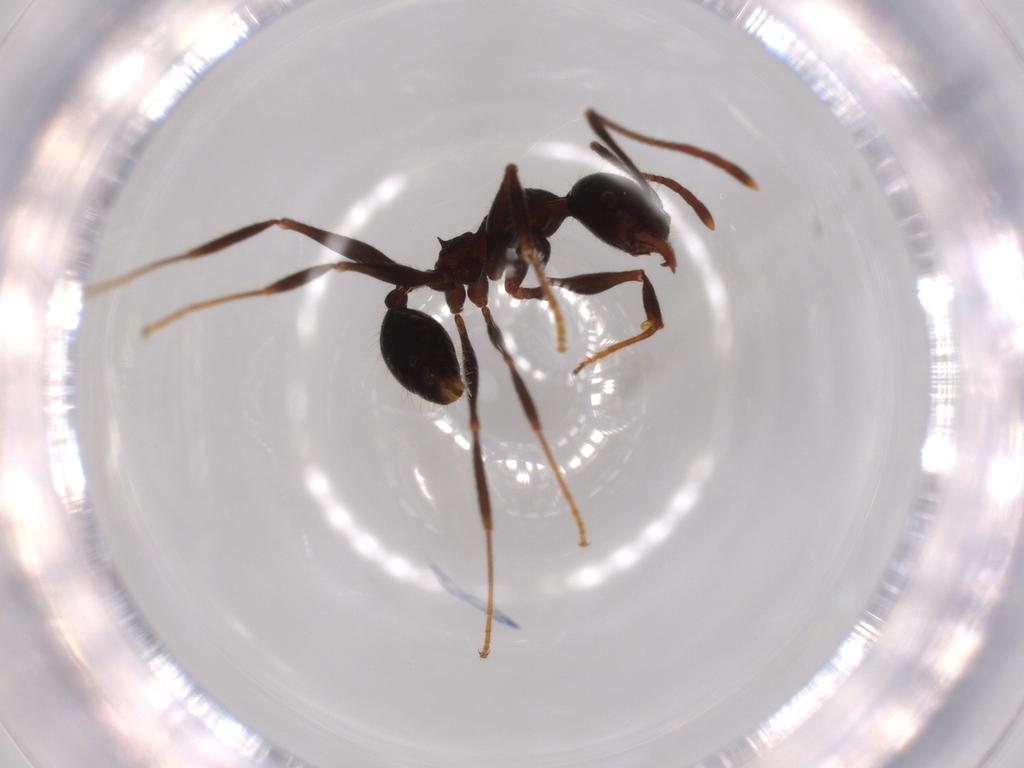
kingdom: Animalia
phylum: Arthropoda
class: Insecta
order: Hymenoptera
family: Formicidae
